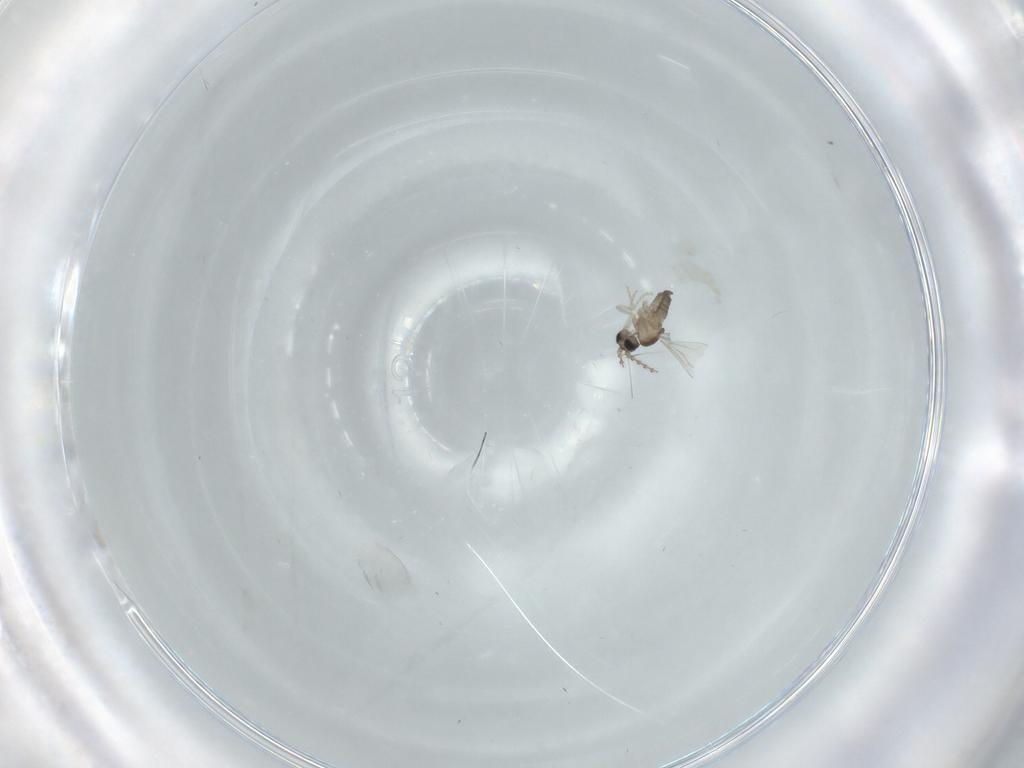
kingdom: Animalia
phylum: Arthropoda
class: Insecta
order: Diptera
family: Cecidomyiidae
